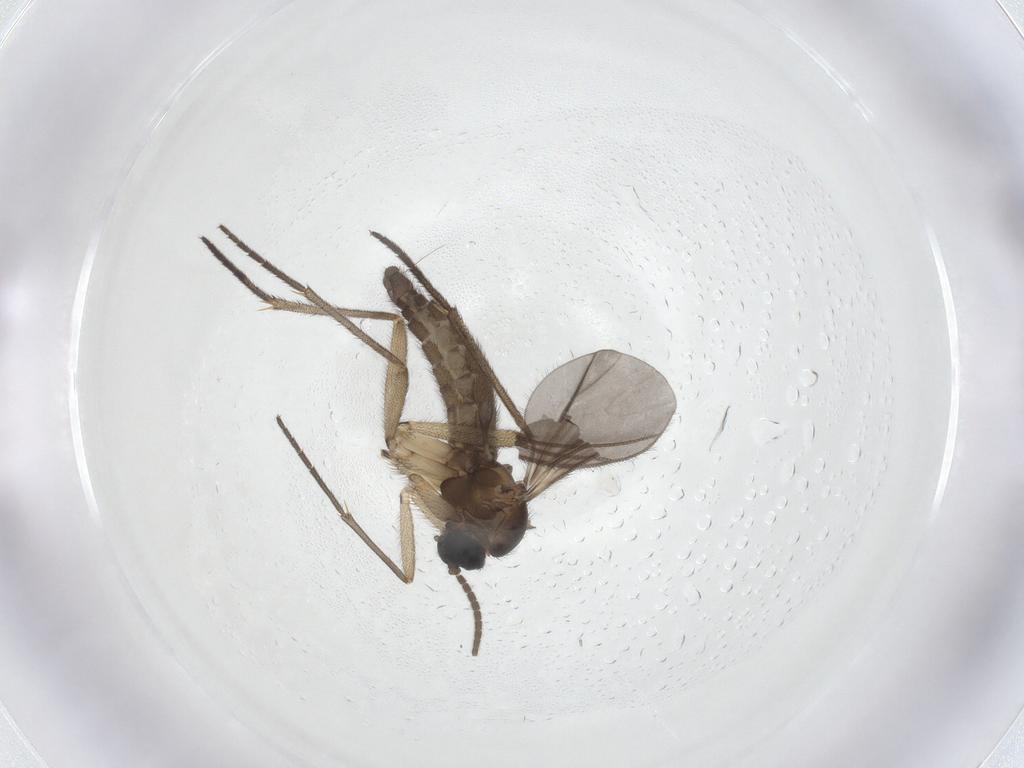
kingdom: Animalia
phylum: Arthropoda
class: Insecta
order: Diptera
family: Sciaridae
